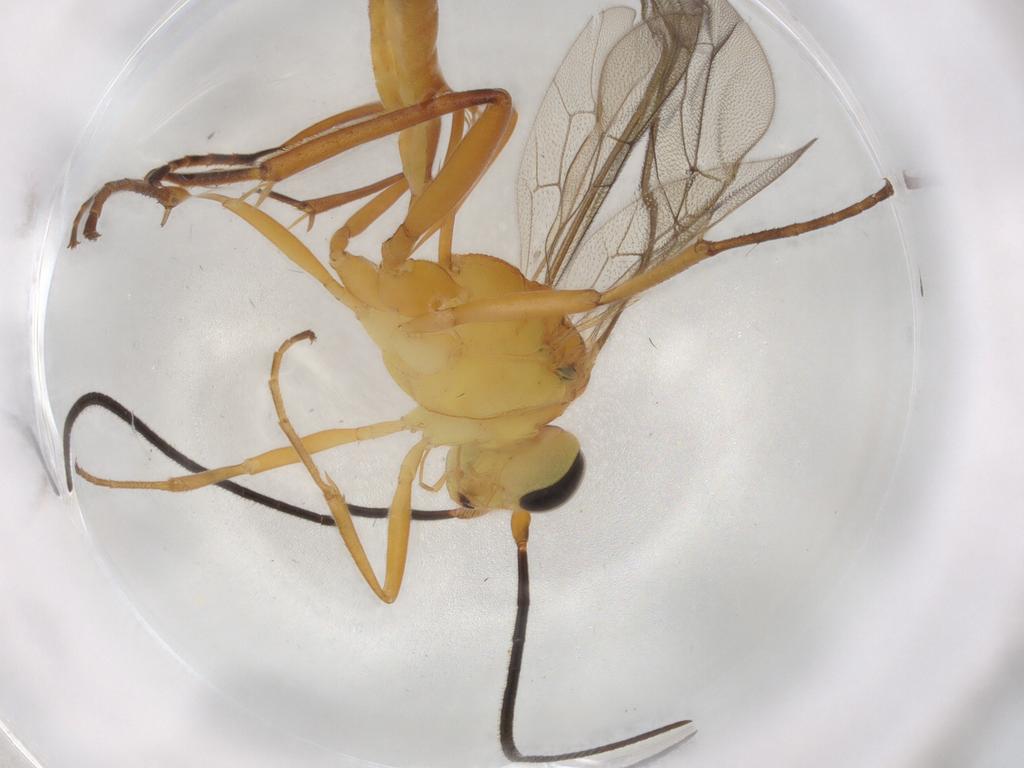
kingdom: Animalia
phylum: Arthropoda
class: Insecta
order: Hymenoptera
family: Ichneumonidae
